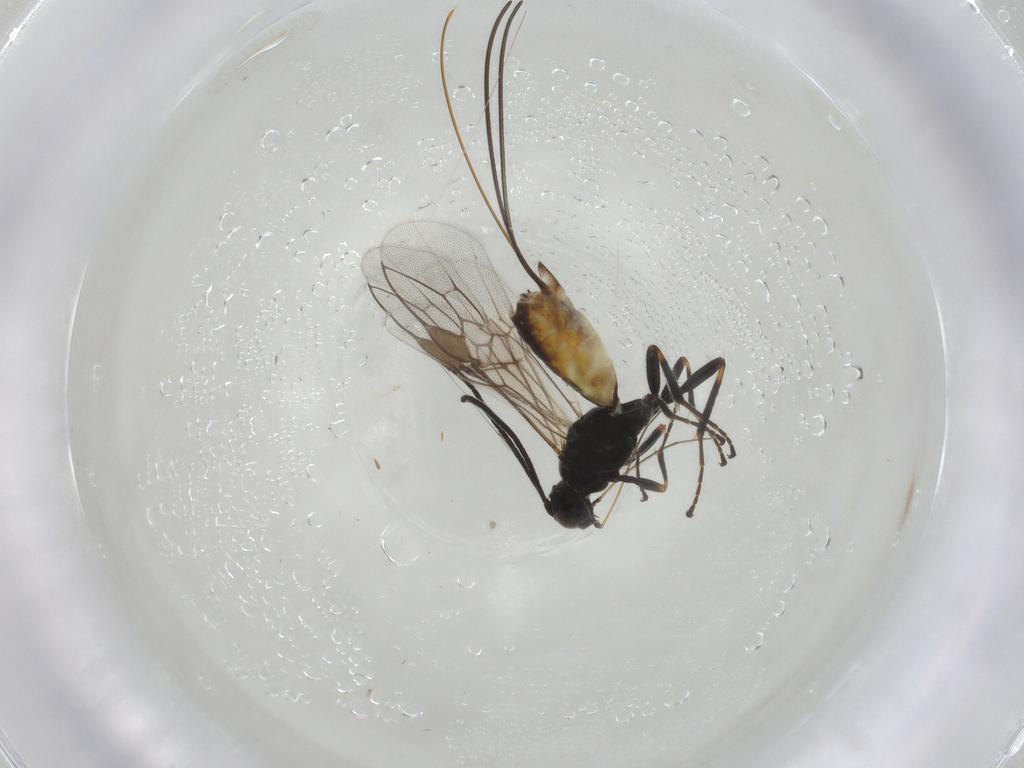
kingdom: Animalia
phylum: Arthropoda
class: Insecta
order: Hymenoptera
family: Braconidae
